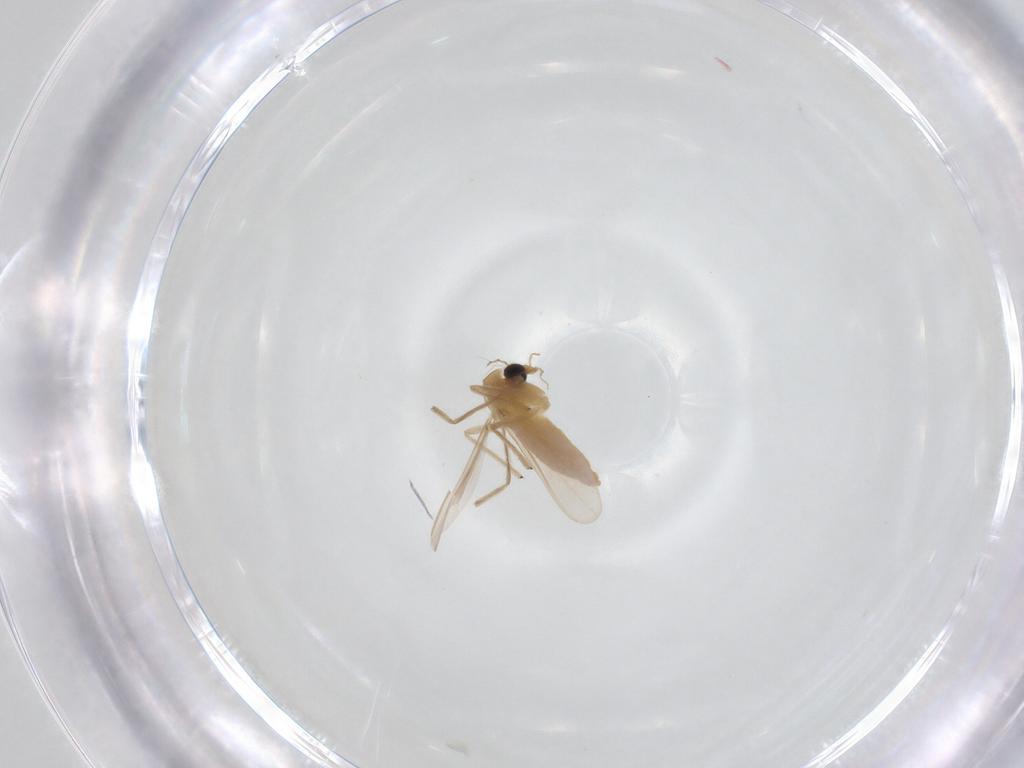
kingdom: Animalia
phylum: Arthropoda
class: Insecta
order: Diptera
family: Chironomidae
